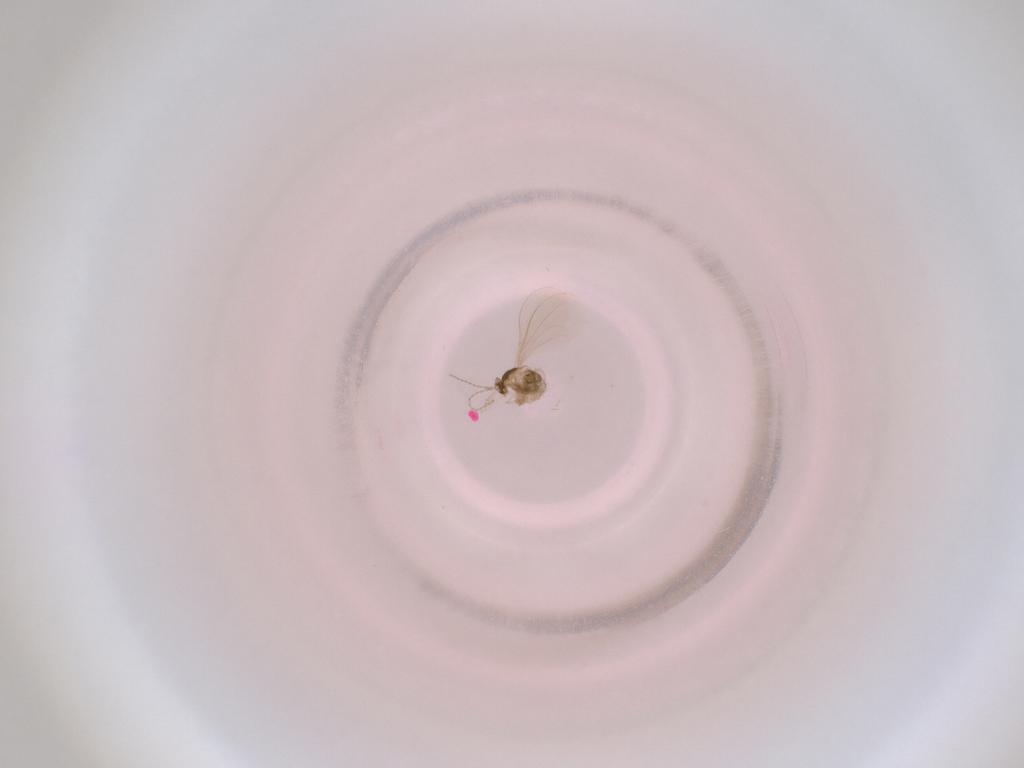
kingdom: Animalia
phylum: Arthropoda
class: Insecta
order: Diptera
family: Cecidomyiidae
